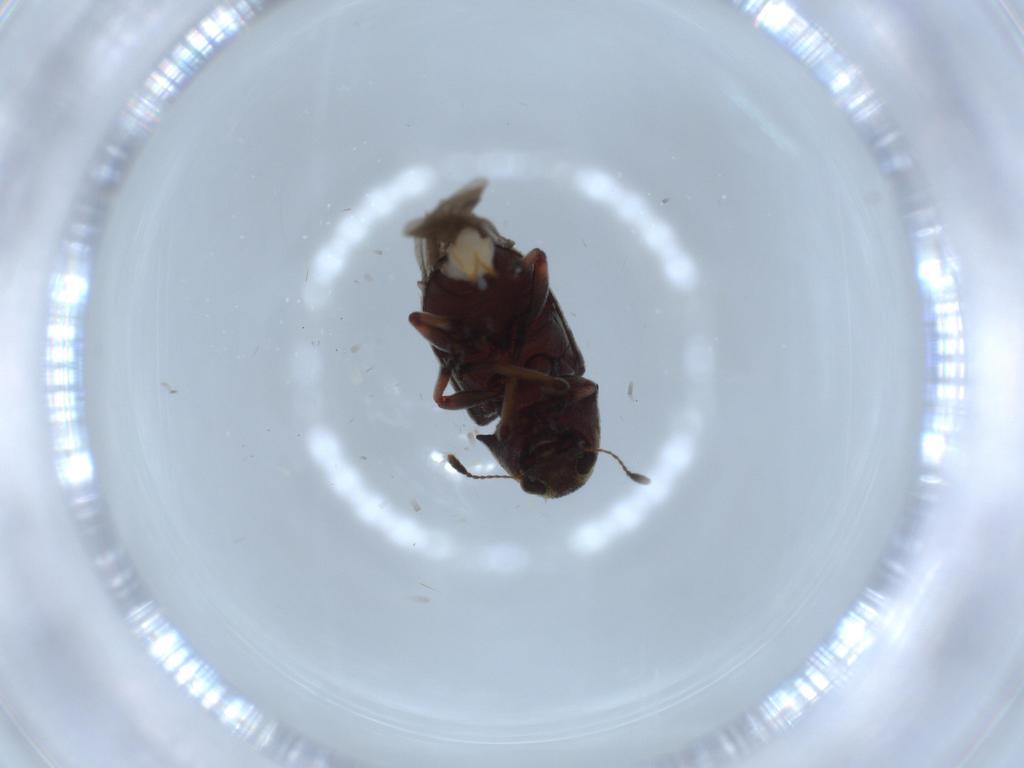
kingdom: Animalia
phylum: Arthropoda
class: Insecta
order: Coleoptera
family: Anthribidae
